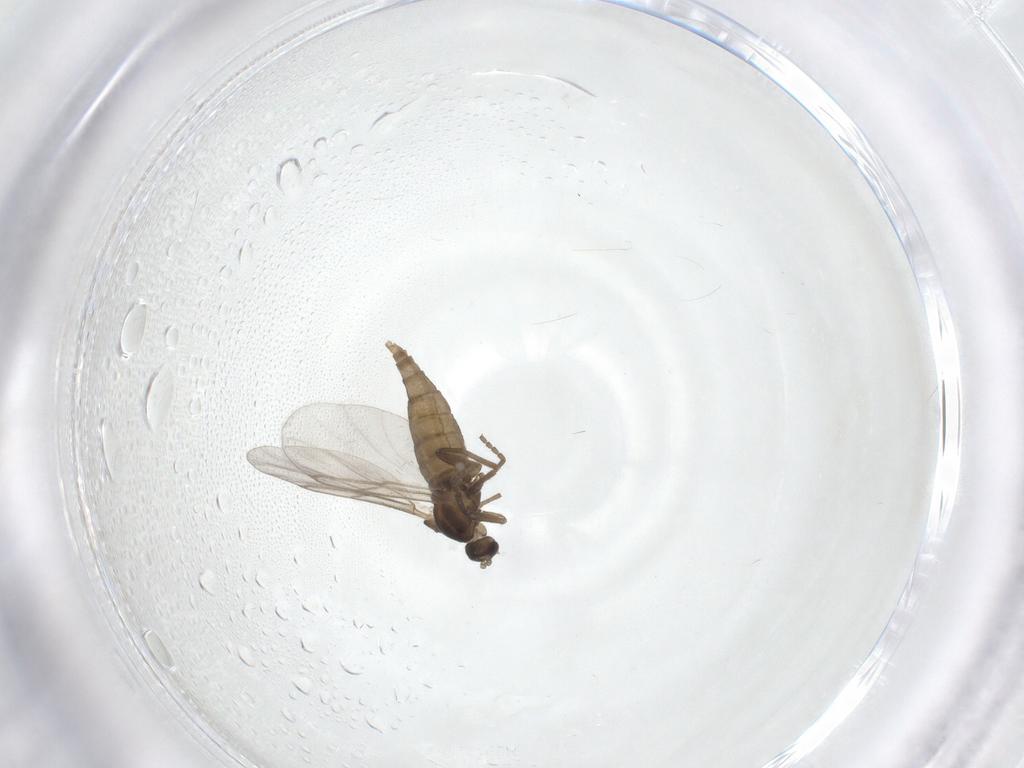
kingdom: Animalia
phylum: Arthropoda
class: Insecta
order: Diptera
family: Cecidomyiidae
